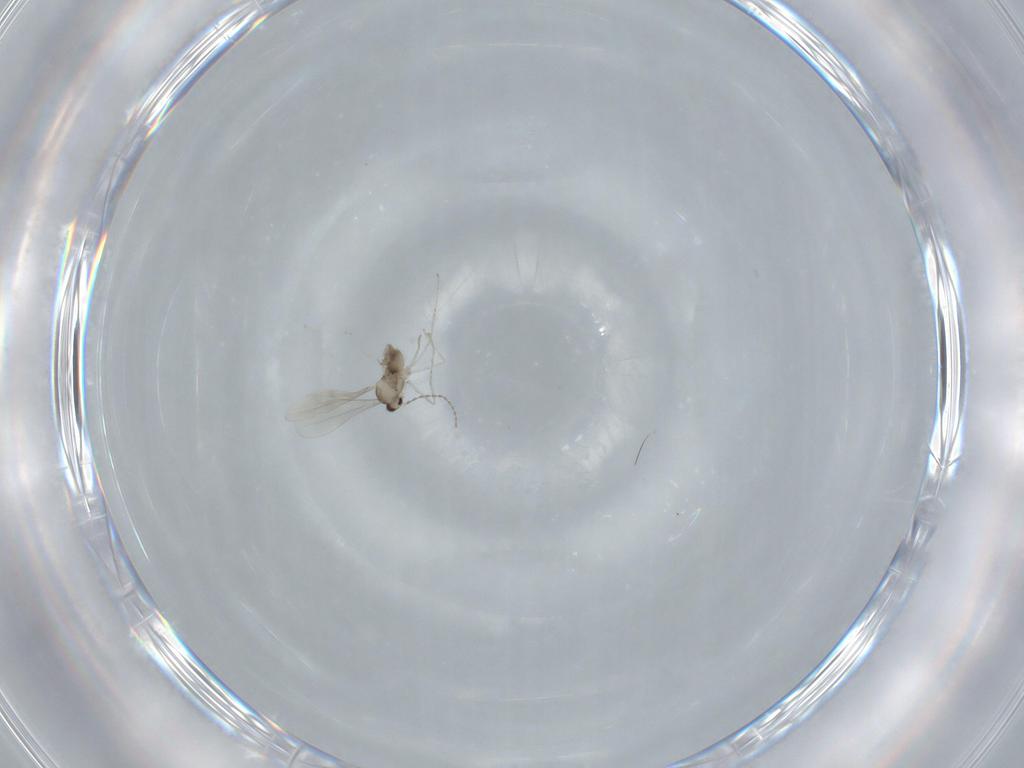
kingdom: Animalia
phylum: Arthropoda
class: Insecta
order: Diptera
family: Cecidomyiidae
